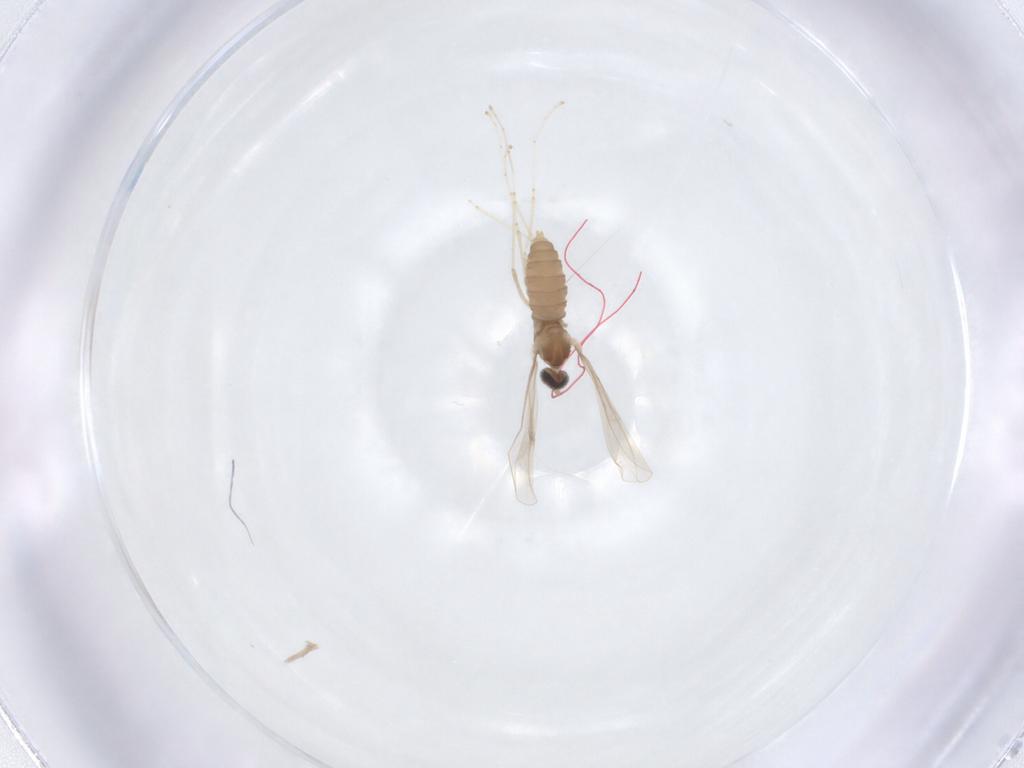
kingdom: Animalia
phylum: Arthropoda
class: Insecta
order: Diptera
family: Cecidomyiidae
